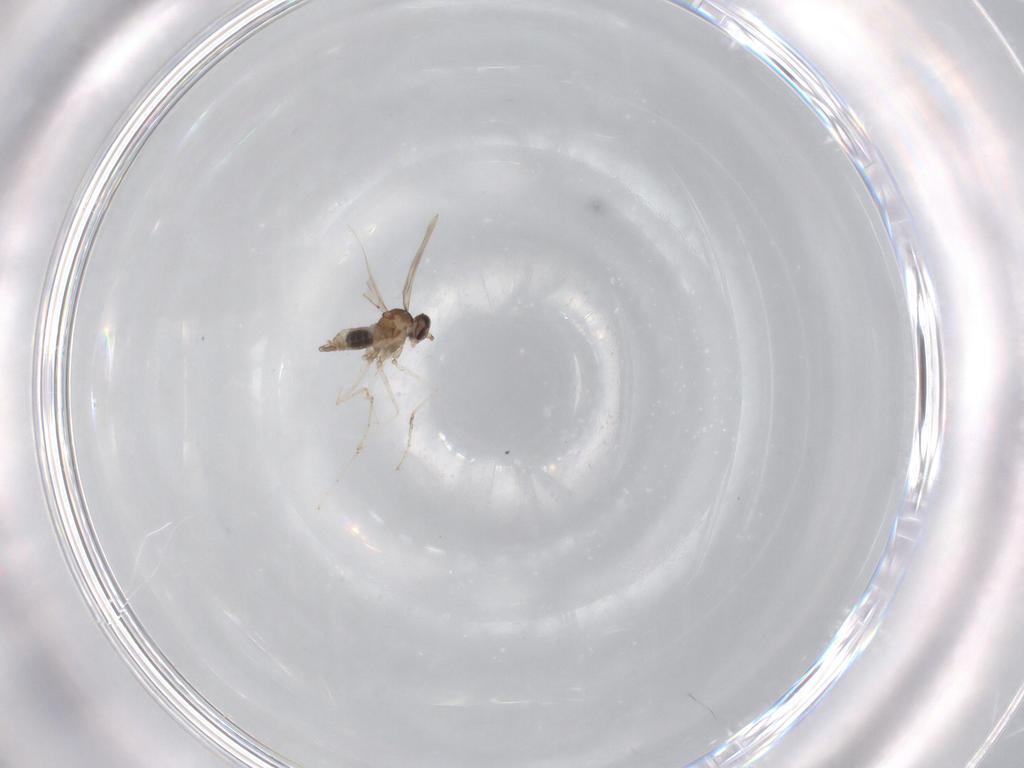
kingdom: Animalia
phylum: Arthropoda
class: Insecta
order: Diptera
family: Cecidomyiidae
